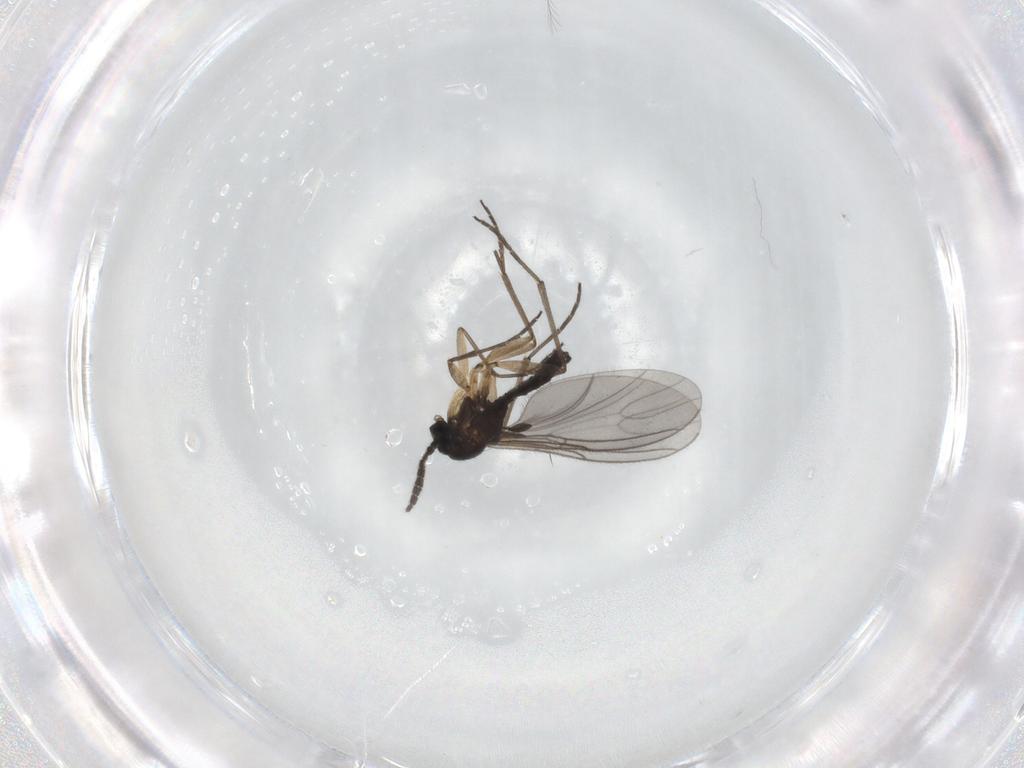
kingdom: Animalia
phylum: Arthropoda
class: Insecta
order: Diptera
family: Sciaridae
